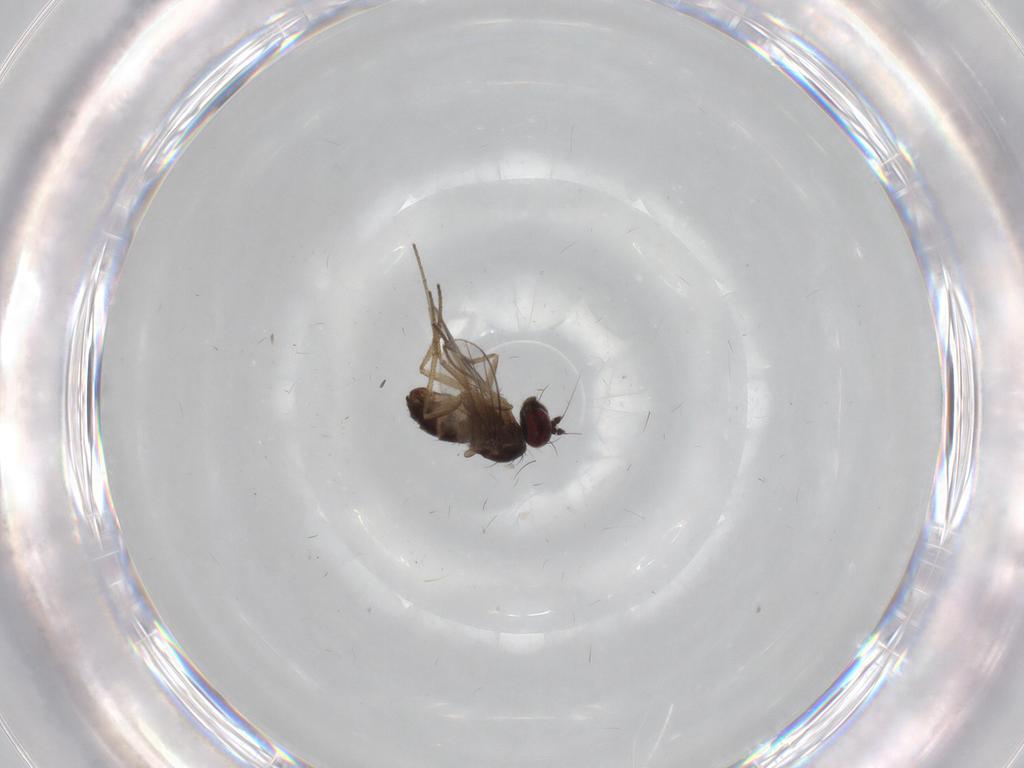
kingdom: Animalia
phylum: Arthropoda
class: Insecta
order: Diptera
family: Dolichopodidae
